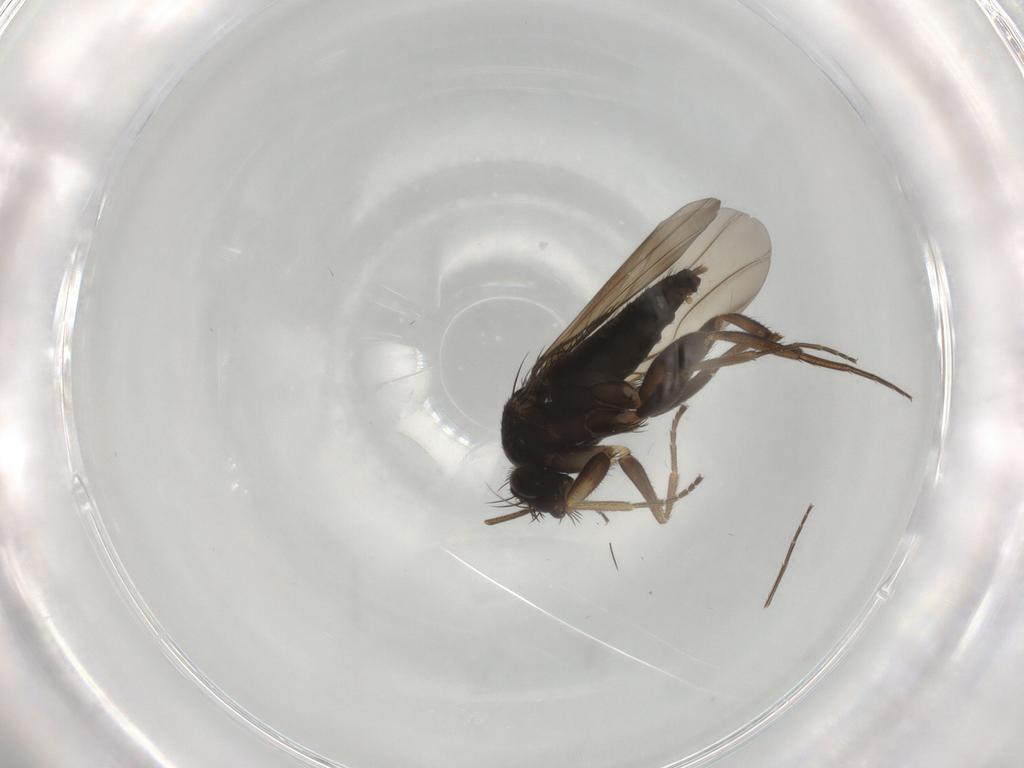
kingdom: Animalia
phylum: Arthropoda
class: Insecta
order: Diptera
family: Phoridae
